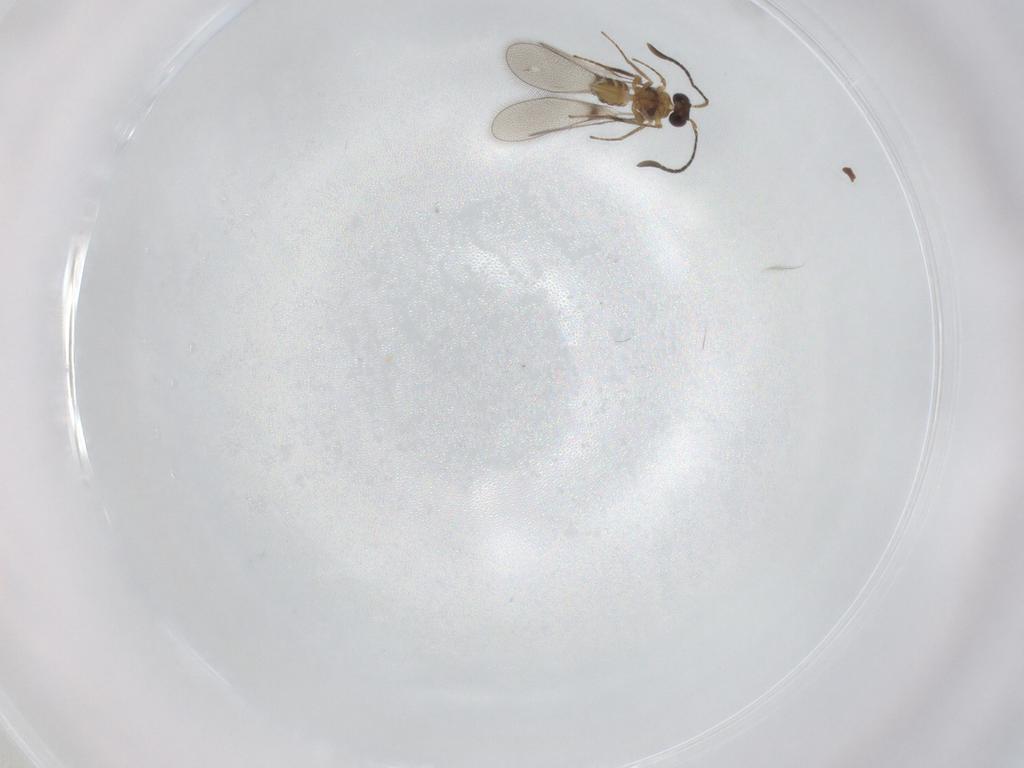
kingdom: Animalia
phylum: Arthropoda
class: Insecta
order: Hymenoptera
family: Mymaridae
